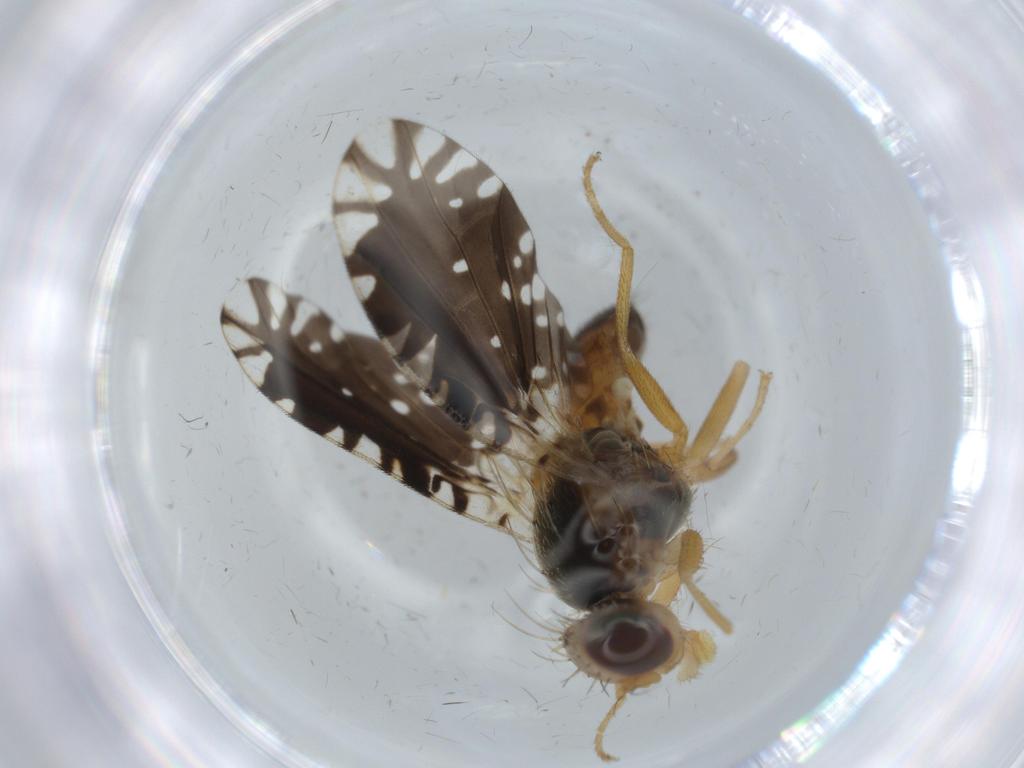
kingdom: Animalia
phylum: Arthropoda
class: Insecta
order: Diptera
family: Tephritidae
